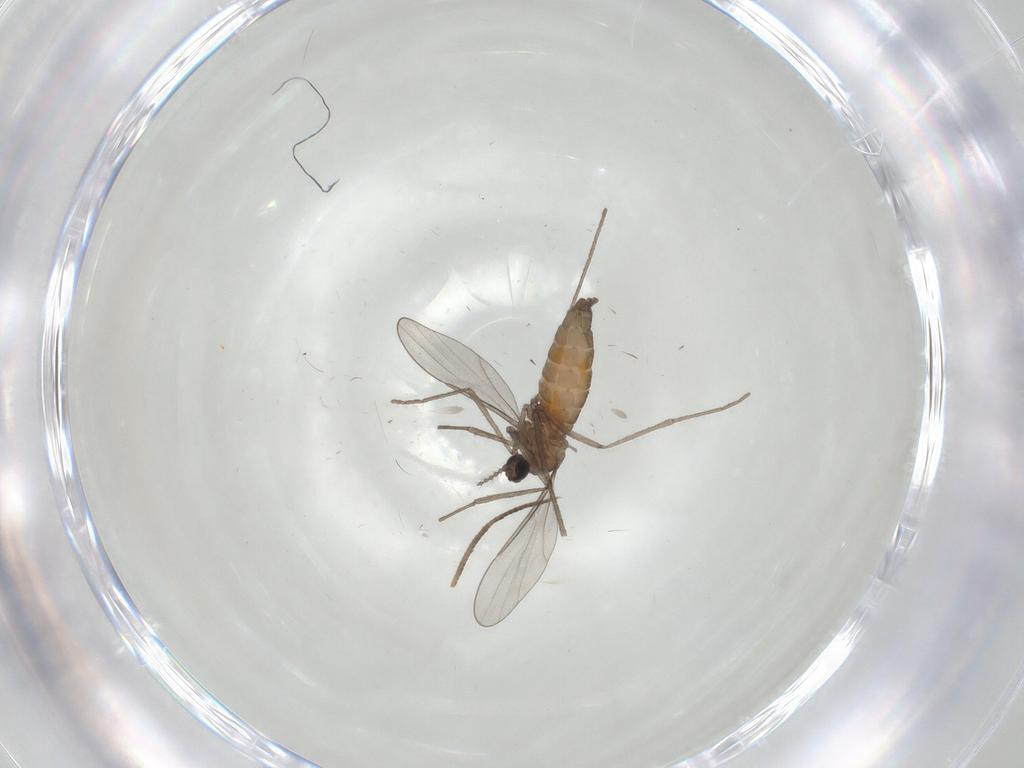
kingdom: Animalia
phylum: Arthropoda
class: Insecta
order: Diptera
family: Cecidomyiidae
